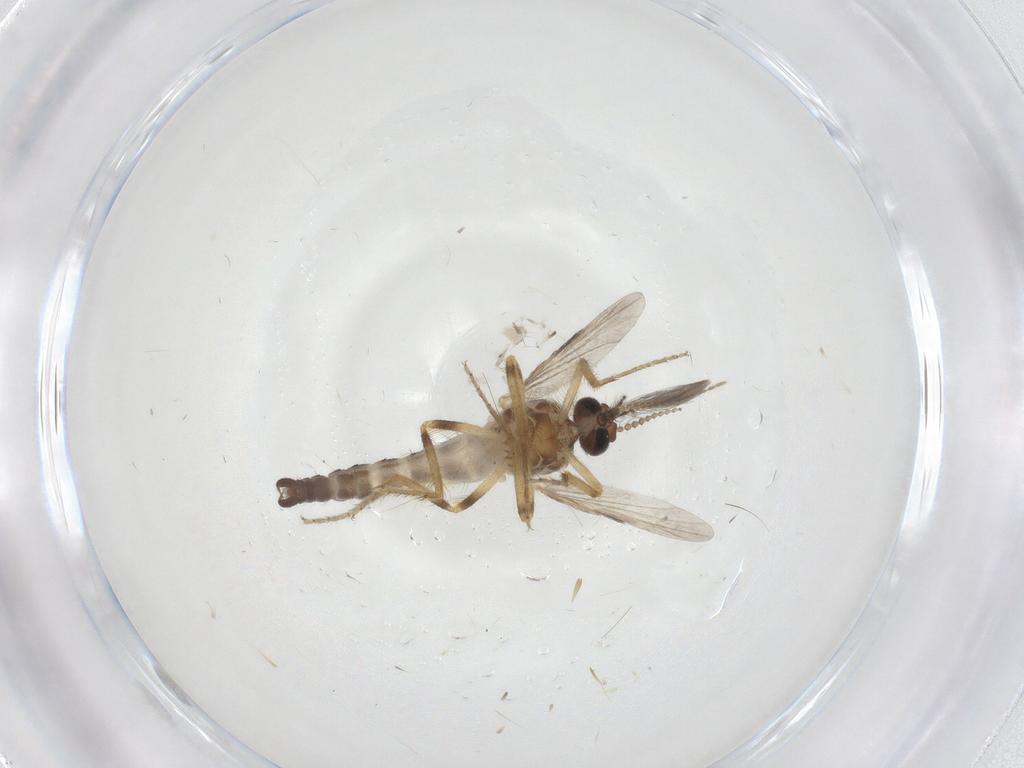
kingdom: Animalia
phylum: Arthropoda
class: Insecta
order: Diptera
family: Ceratopogonidae
